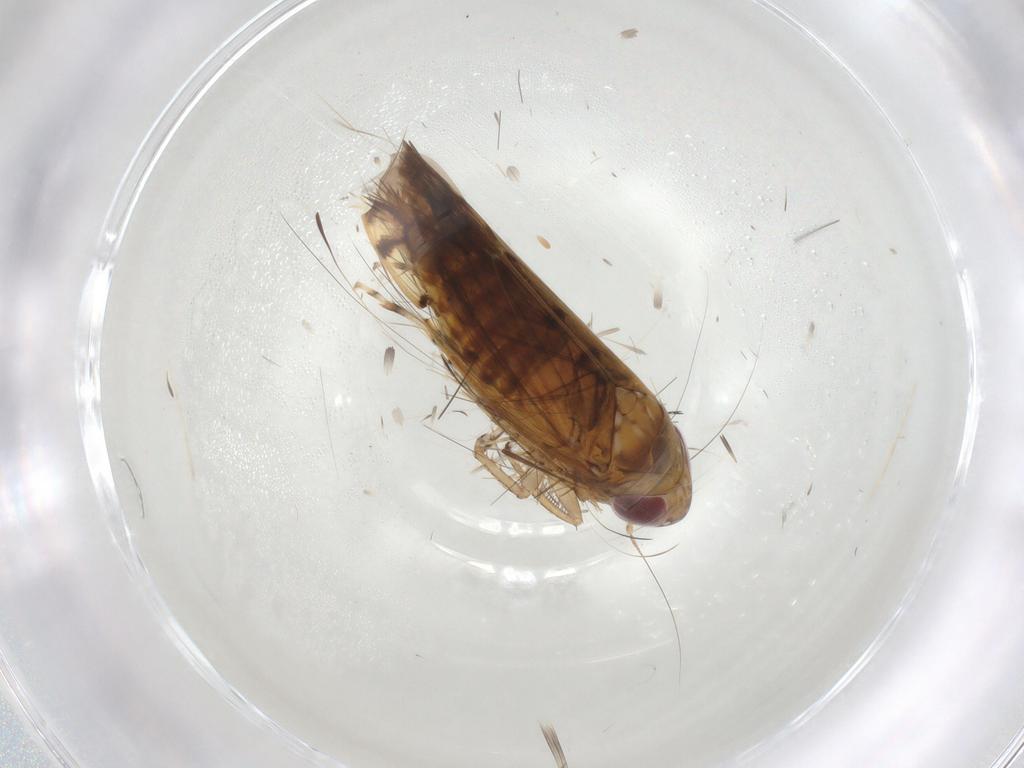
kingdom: Animalia
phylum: Arthropoda
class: Insecta
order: Hemiptera
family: Cicadellidae
